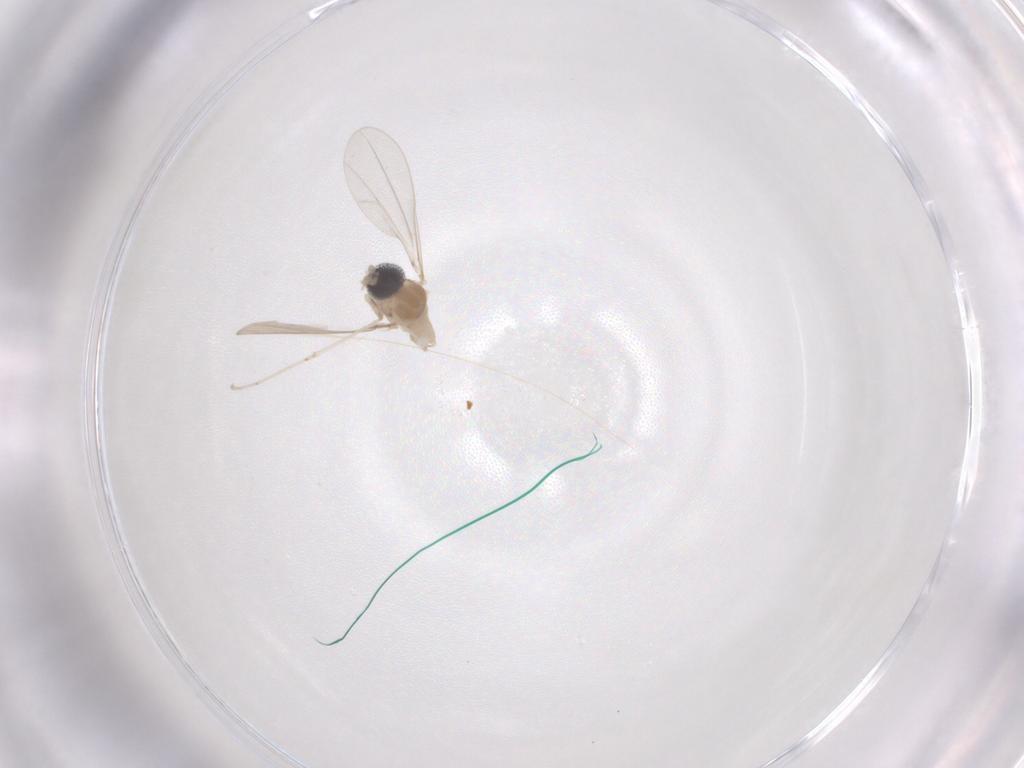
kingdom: Animalia
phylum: Arthropoda
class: Insecta
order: Diptera
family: Cecidomyiidae
